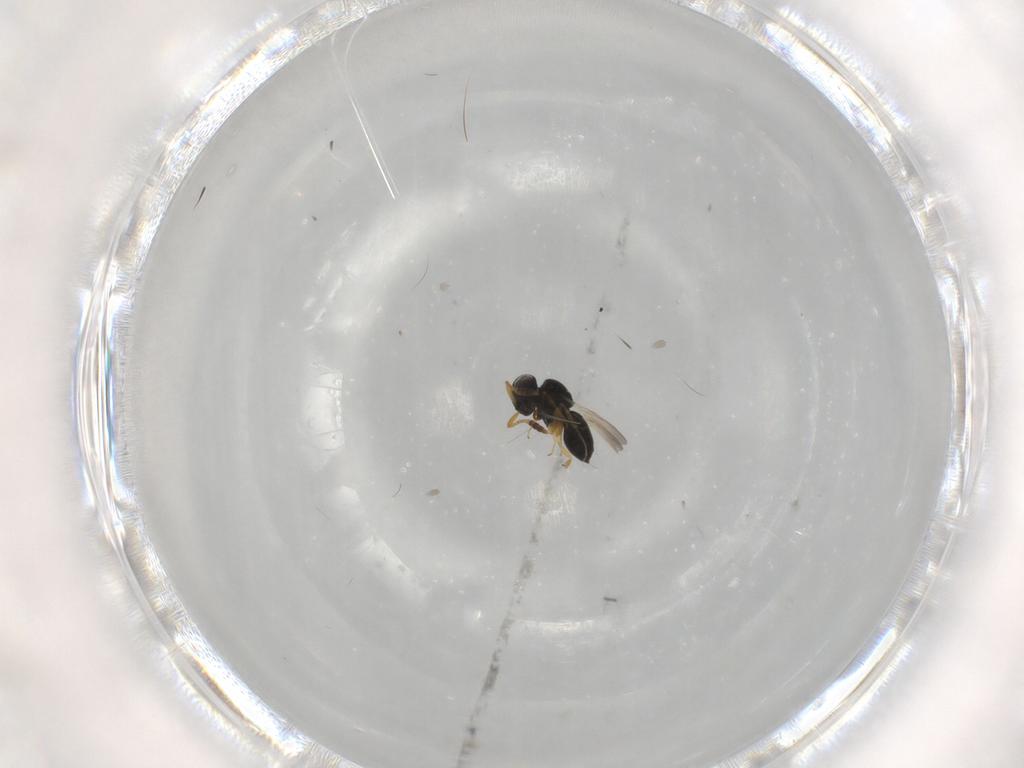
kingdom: Animalia
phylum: Arthropoda
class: Insecta
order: Hymenoptera
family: Scelionidae
